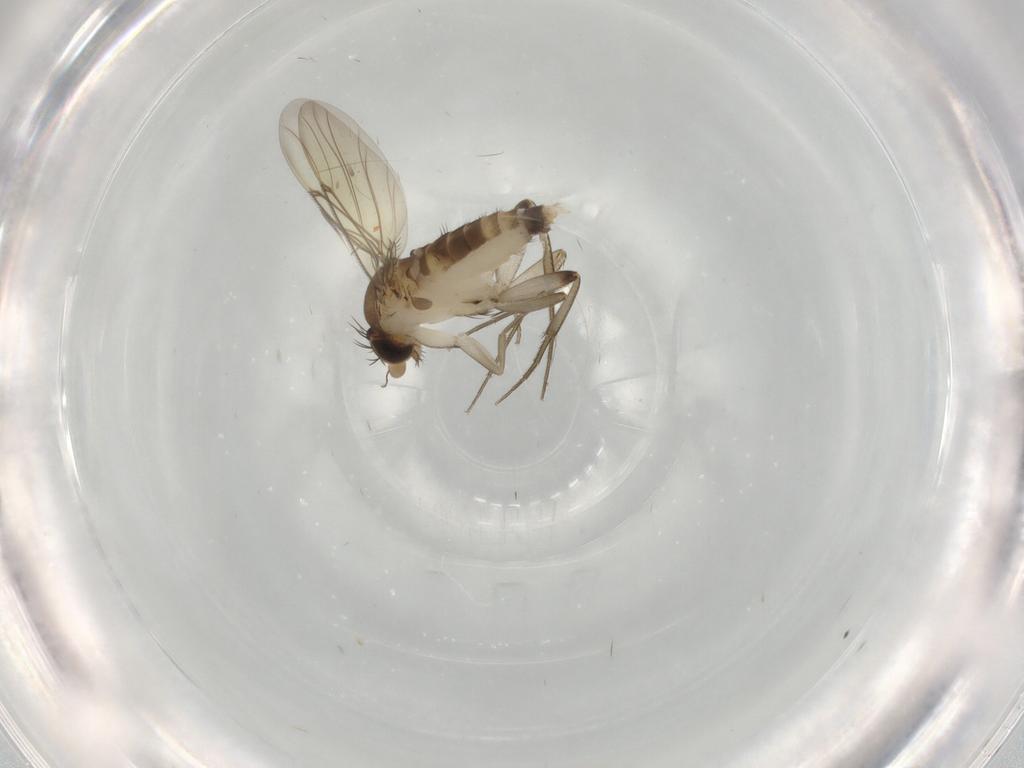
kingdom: Animalia
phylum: Arthropoda
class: Insecta
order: Diptera
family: Phoridae
